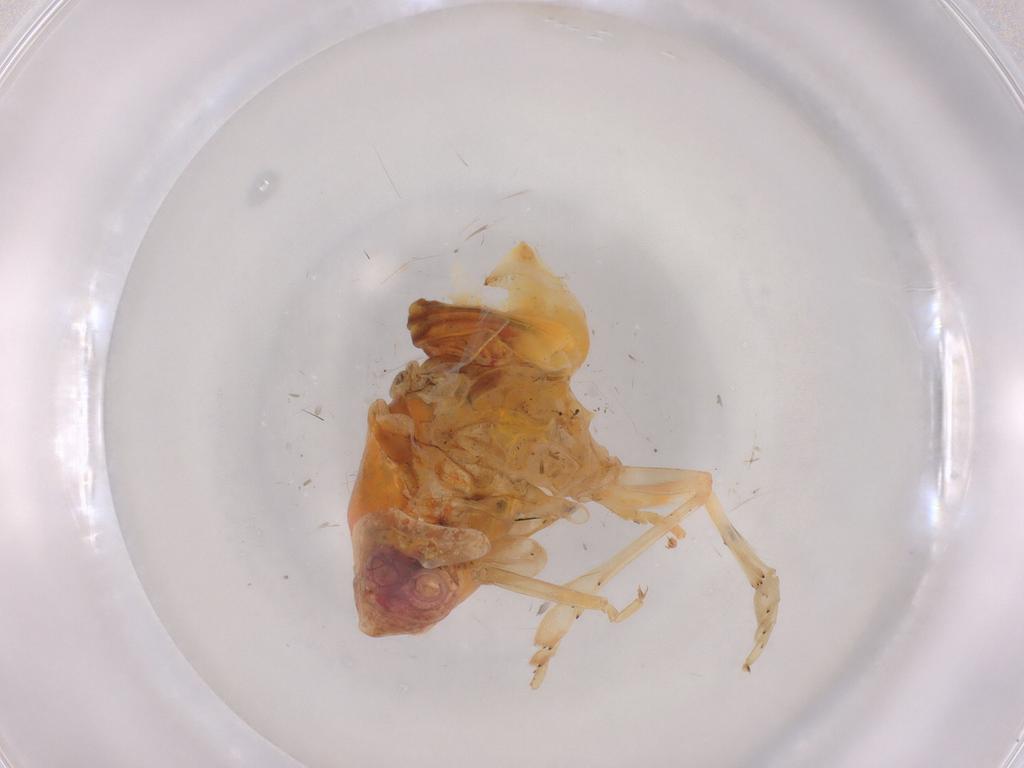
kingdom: Animalia
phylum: Arthropoda
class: Insecta
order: Hemiptera
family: Flatidae
